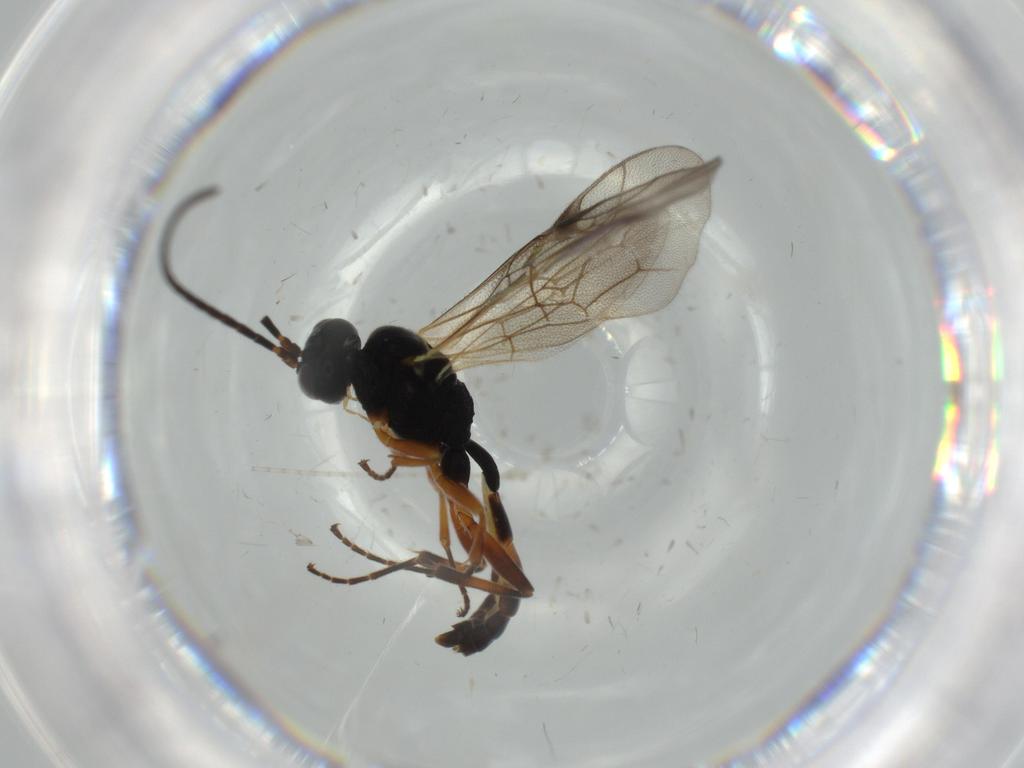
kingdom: Animalia
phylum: Arthropoda
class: Insecta
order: Hymenoptera
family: Ichneumonidae
